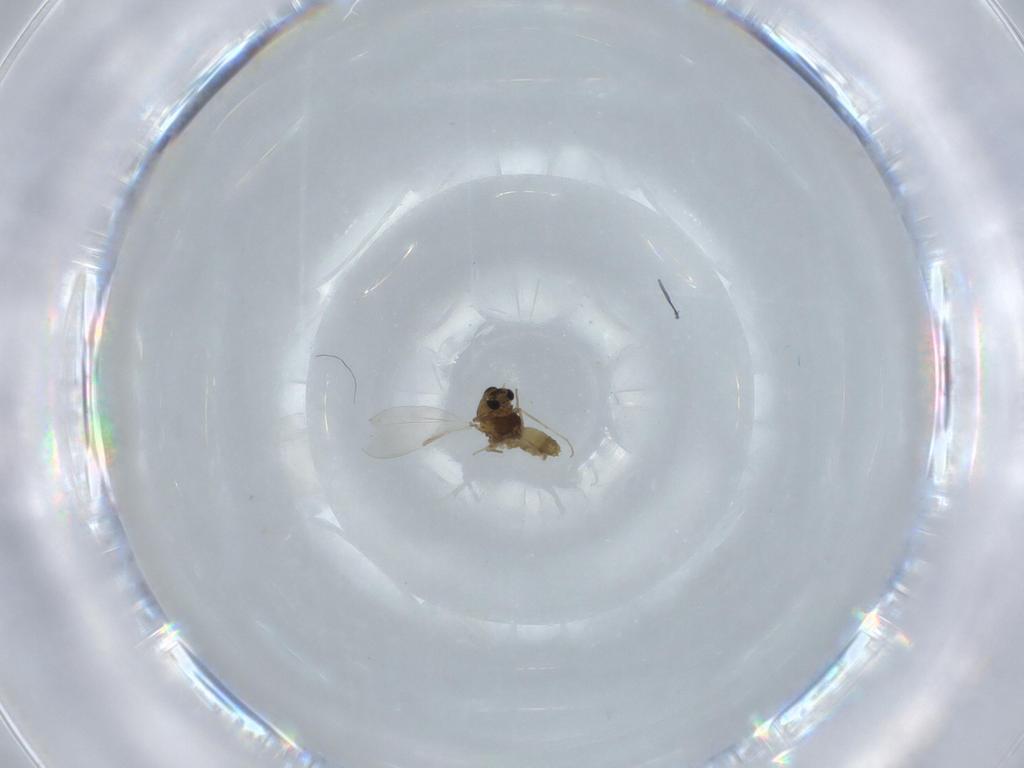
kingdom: Animalia
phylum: Arthropoda
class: Insecta
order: Diptera
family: Chironomidae
